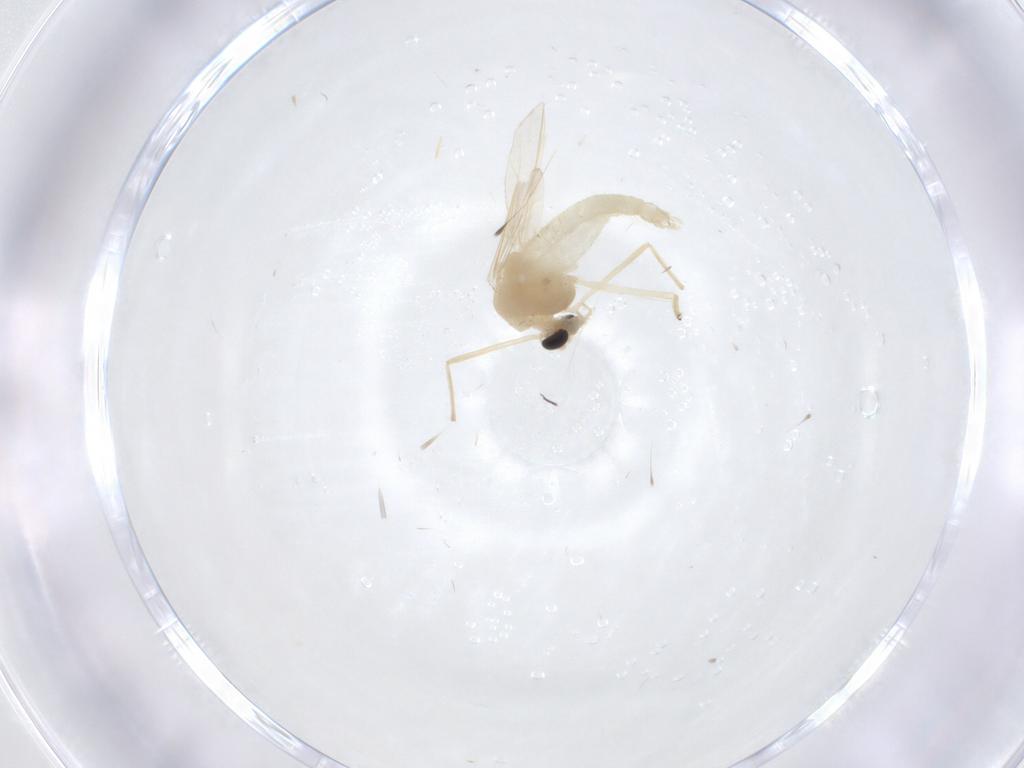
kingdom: Animalia
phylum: Arthropoda
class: Insecta
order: Diptera
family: Chironomidae
